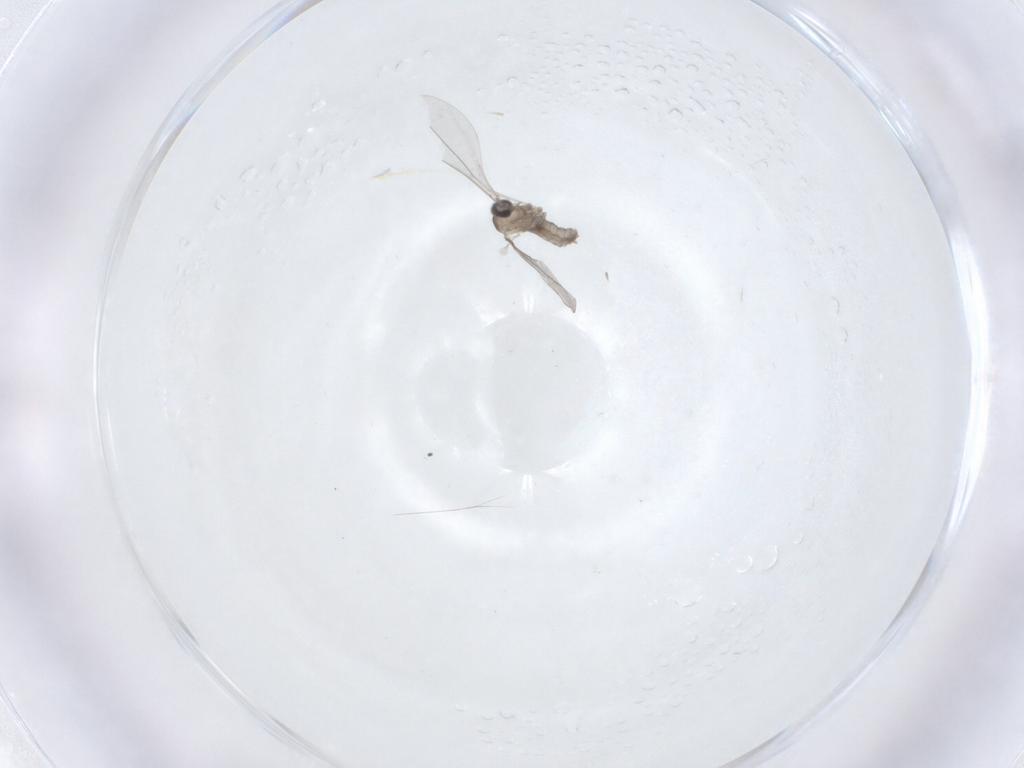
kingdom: Animalia
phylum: Arthropoda
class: Insecta
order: Diptera
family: Cecidomyiidae
